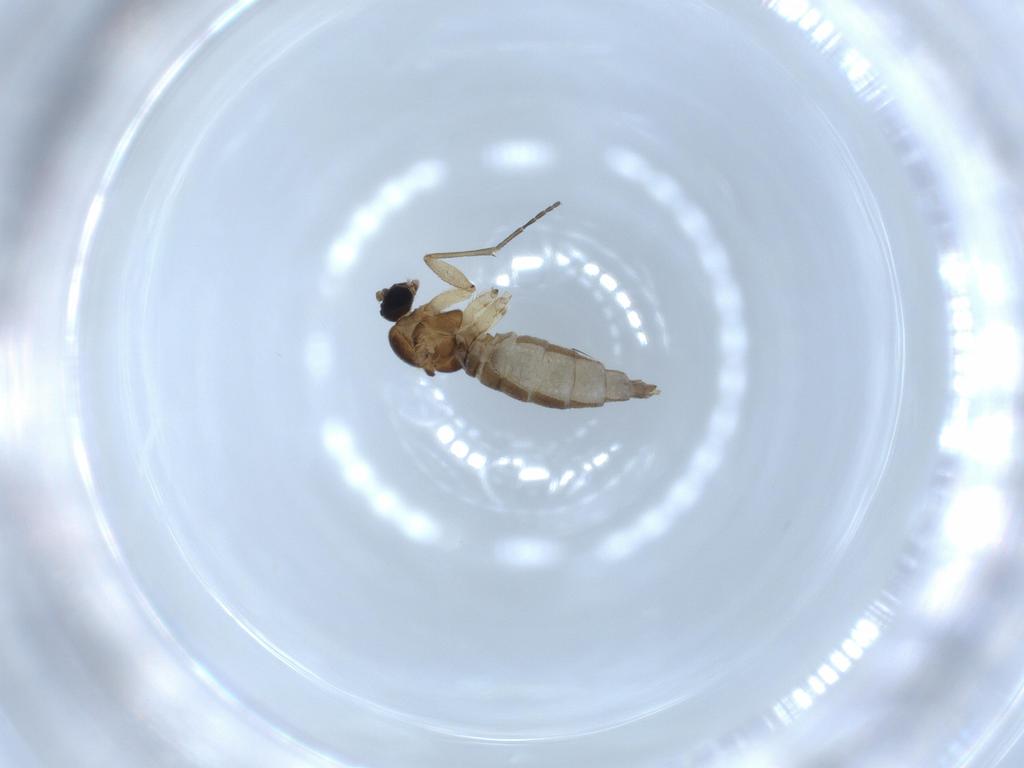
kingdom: Animalia
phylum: Arthropoda
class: Insecta
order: Diptera
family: Sciaridae
